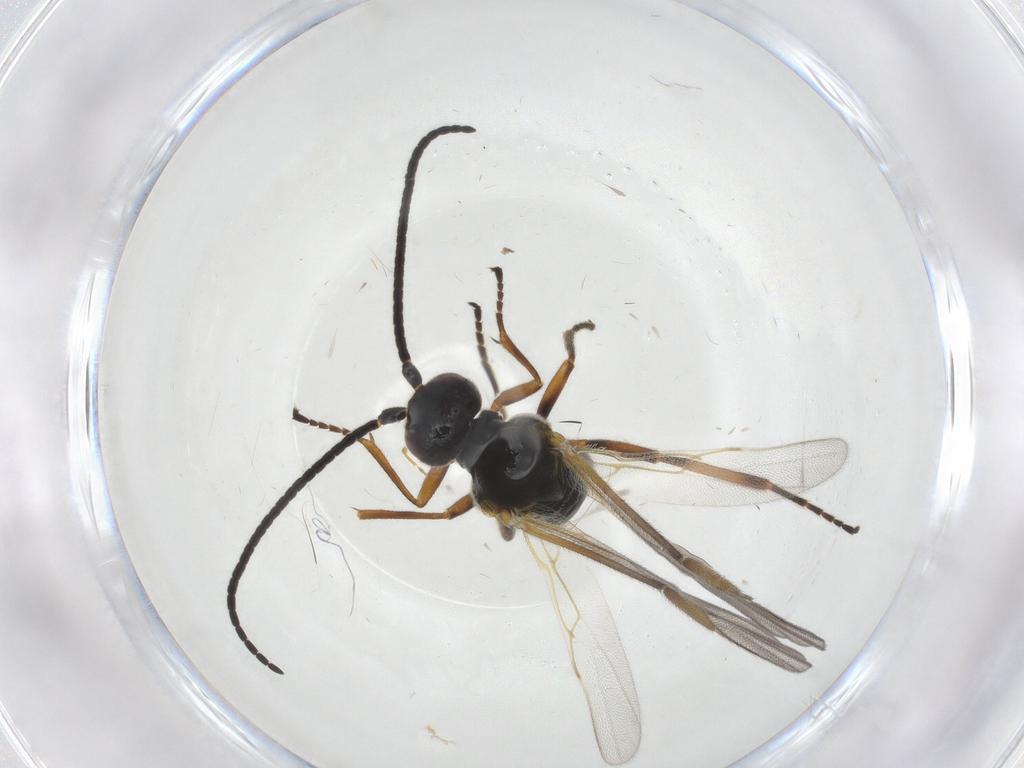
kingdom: Animalia
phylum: Arthropoda
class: Insecta
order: Hymenoptera
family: Braconidae
